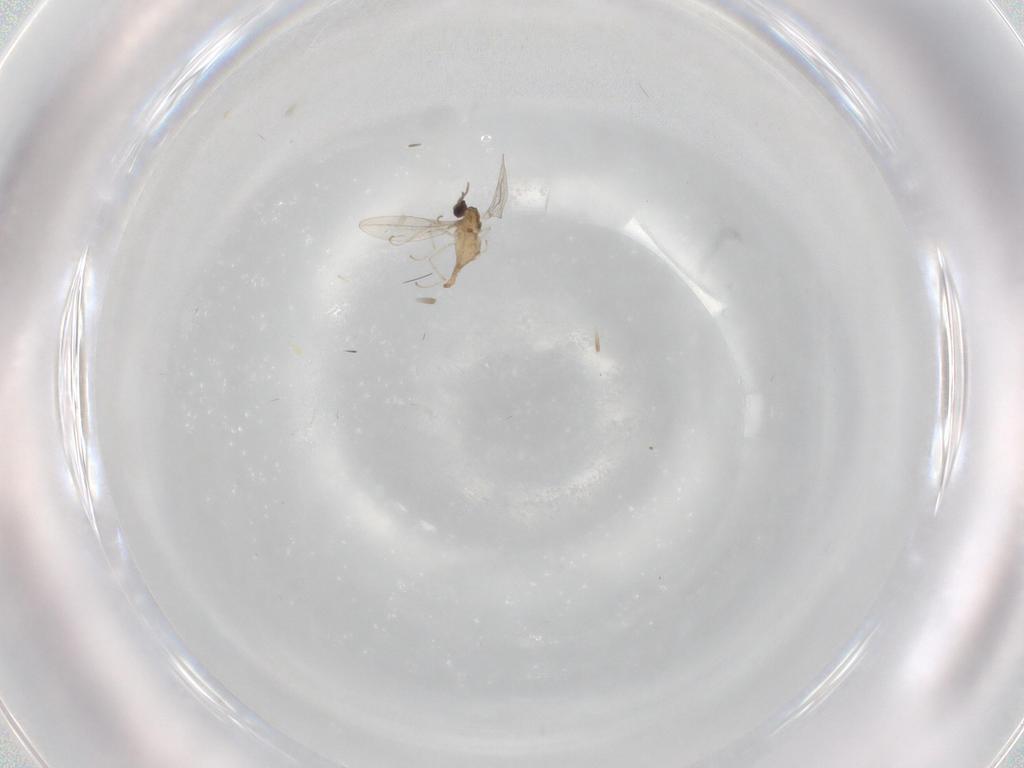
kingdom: Animalia
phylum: Arthropoda
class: Insecta
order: Diptera
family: Cecidomyiidae
